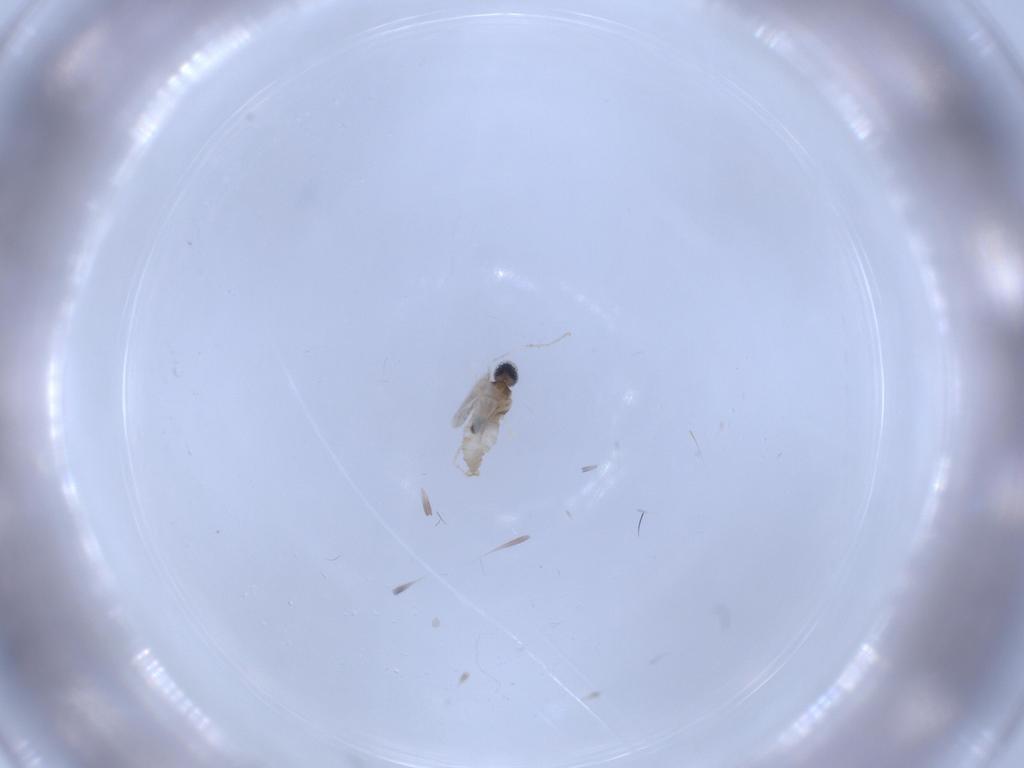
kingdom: Animalia
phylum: Arthropoda
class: Insecta
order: Diptera
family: Cecidomyiidae
